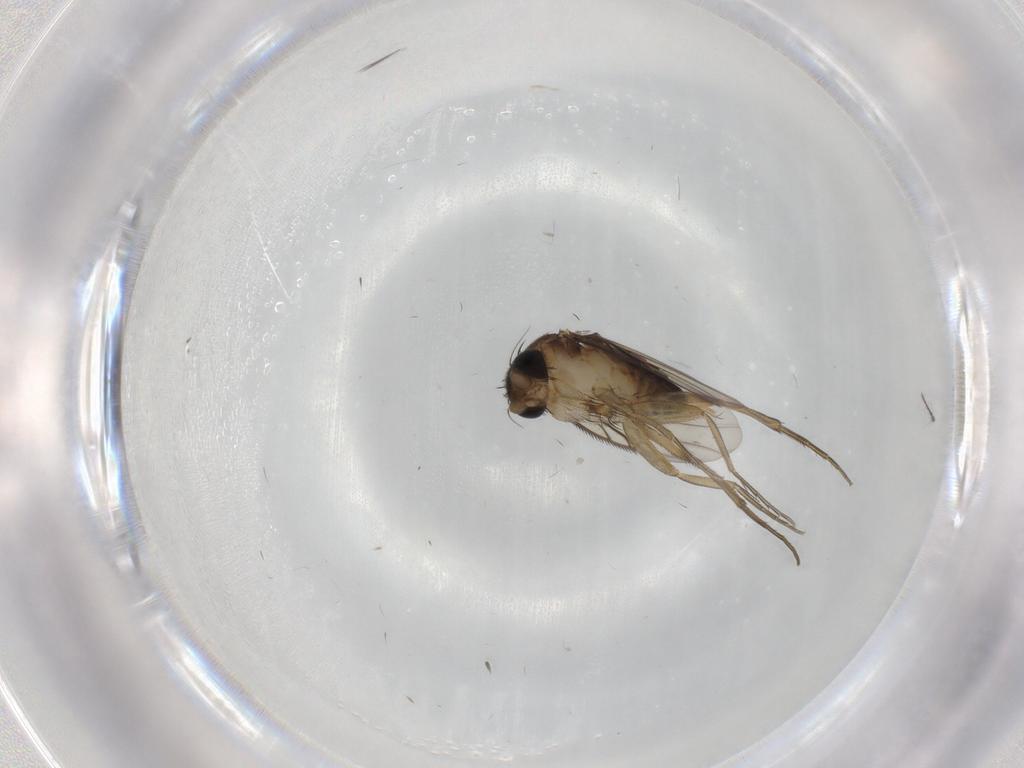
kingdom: Animalia
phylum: Arthropoda
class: Insecta
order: Diptera
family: Phoridae
